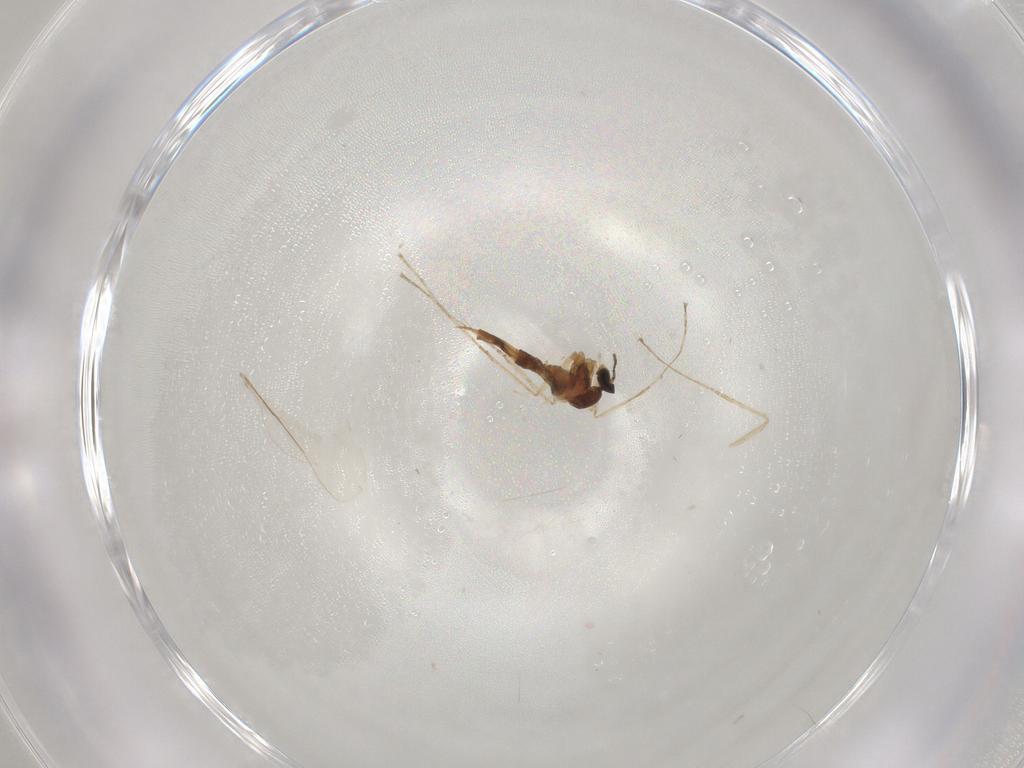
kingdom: Animalia
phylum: Arthropoda
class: Insecta
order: Diptera
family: Cecidomyiidae
